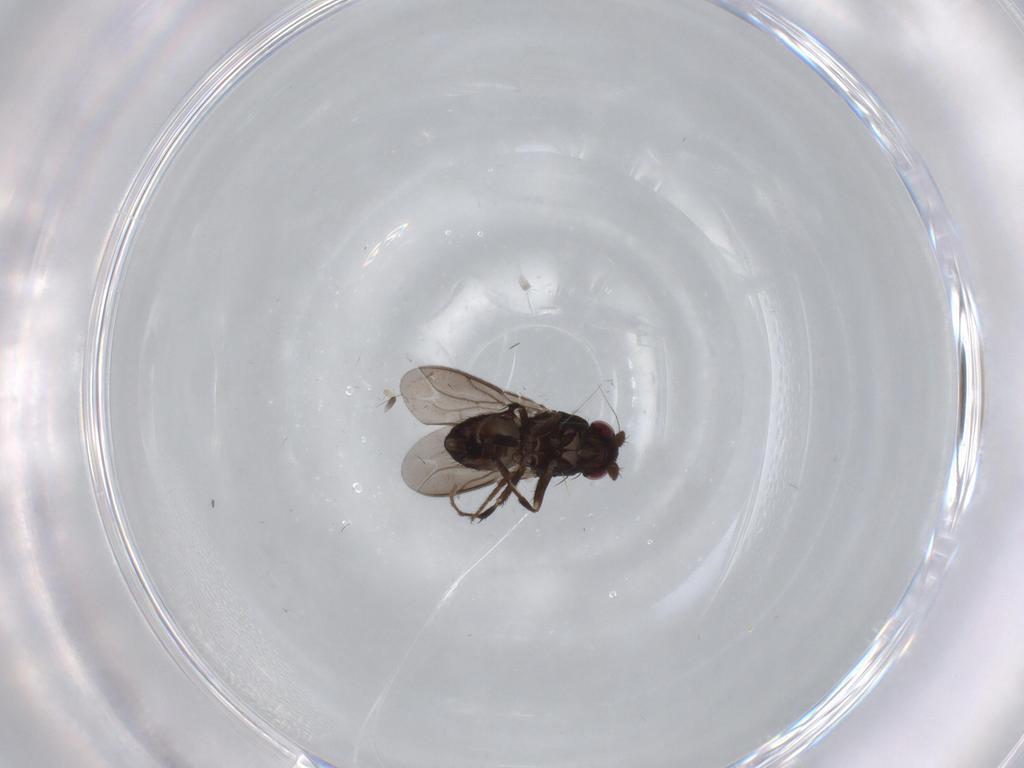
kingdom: Animalia
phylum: Arthropoda
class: Insecta
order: Diptera
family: Sphaeroceridae
